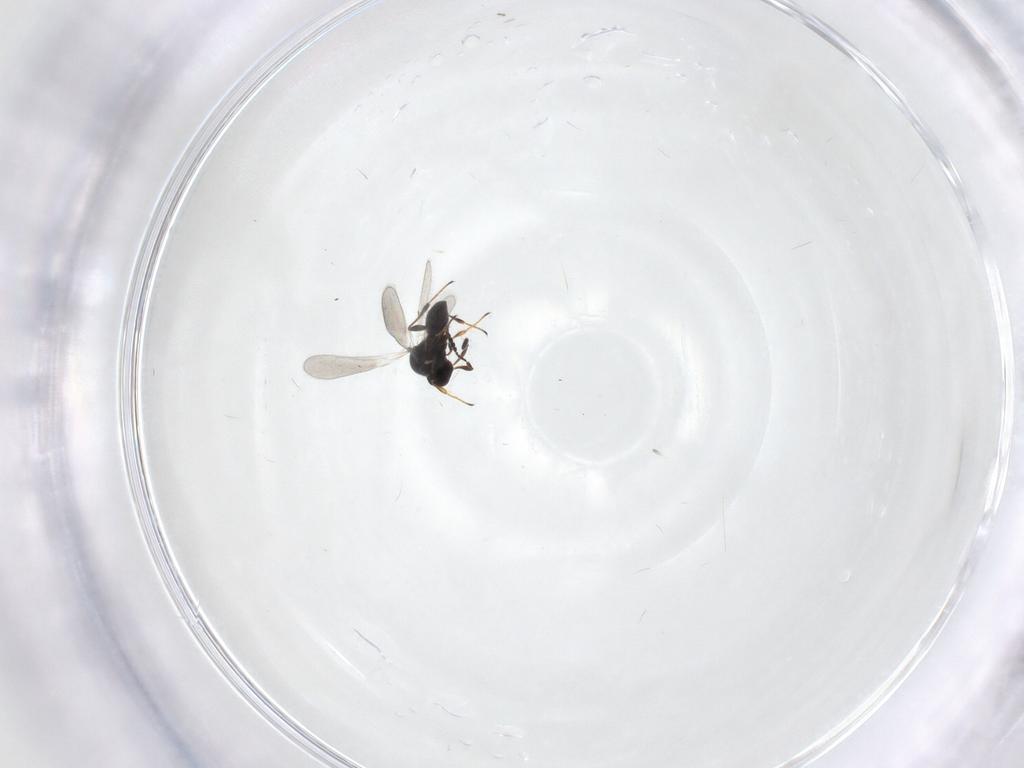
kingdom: Animalia
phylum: Arthropoda
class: Insecta
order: Hymenoptera
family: Platygastridae
